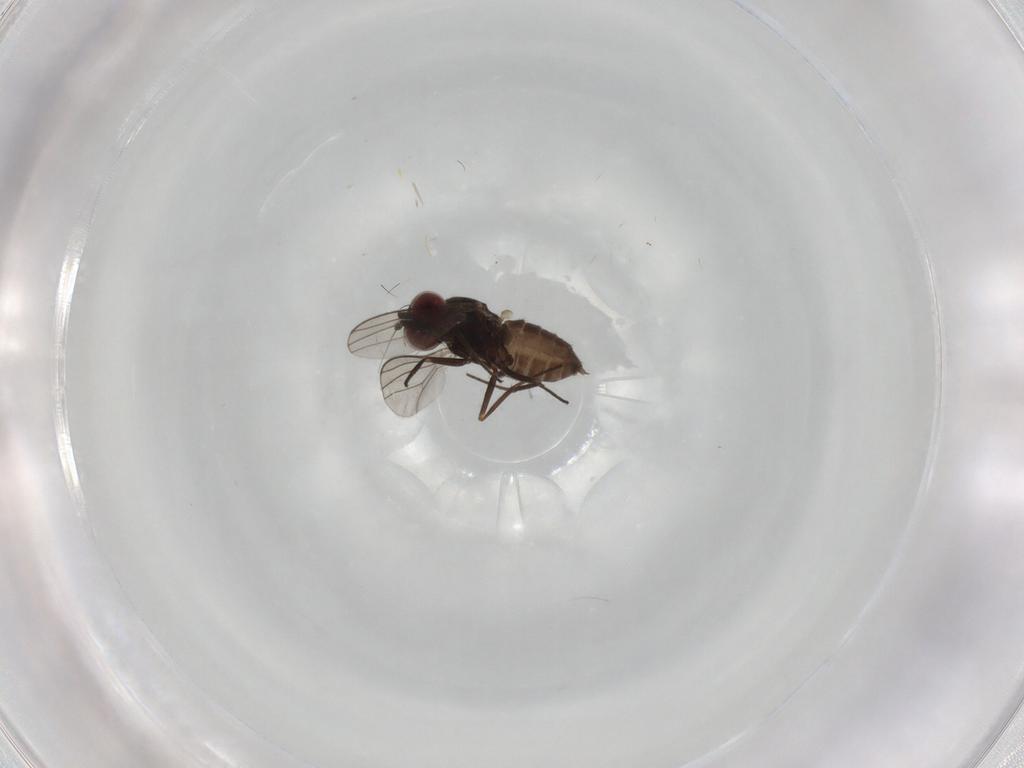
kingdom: Animalia
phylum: Arthropoda
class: Insecta
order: Diptera
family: Dolichopodidae
